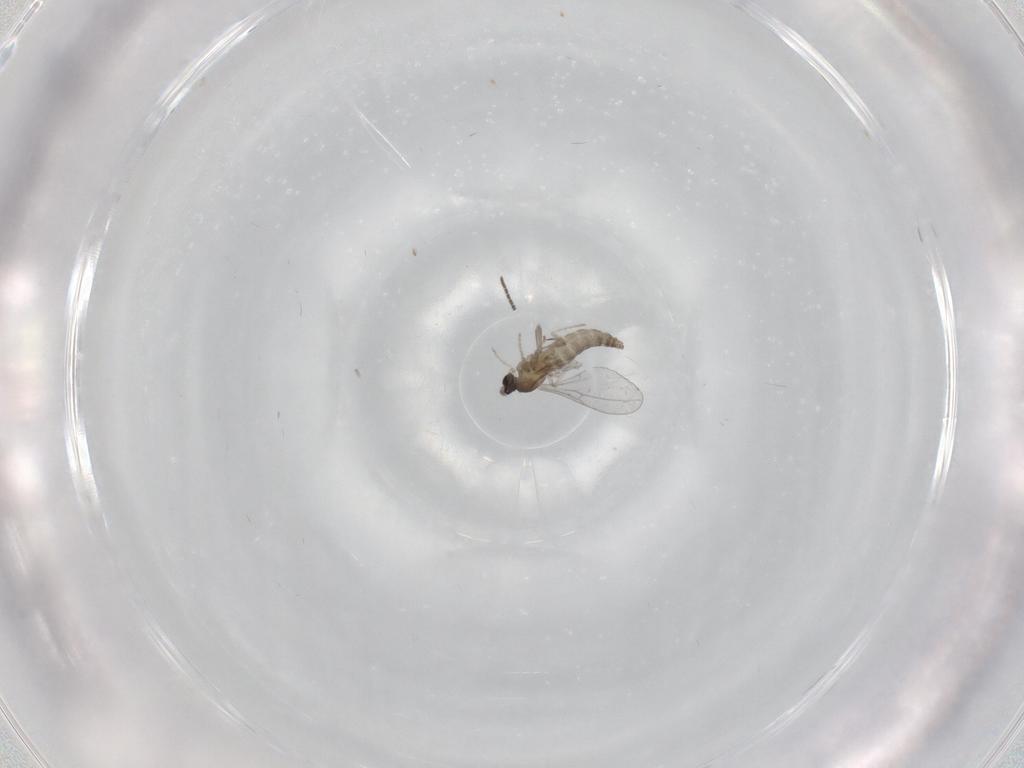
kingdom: Animalia
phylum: Arthropoda
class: Insecta
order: Diptera
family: Cecidomyiidae
